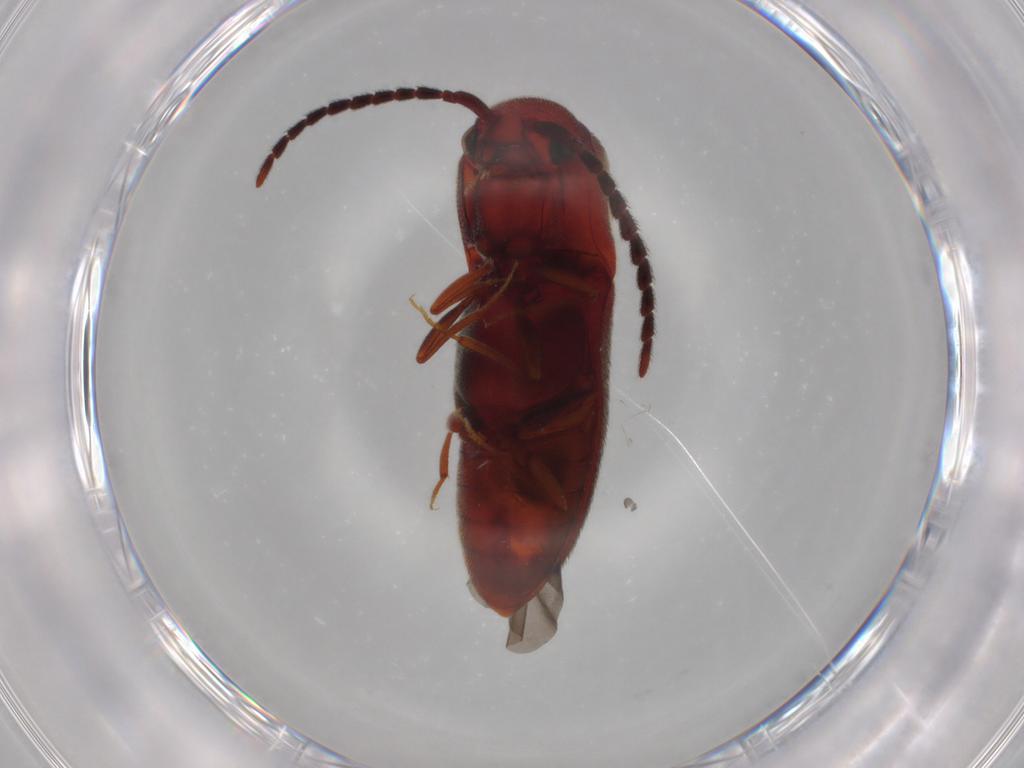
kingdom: Animalia
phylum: Arthropoda
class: Insecta
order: Coleoptera
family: Eucnemidae
